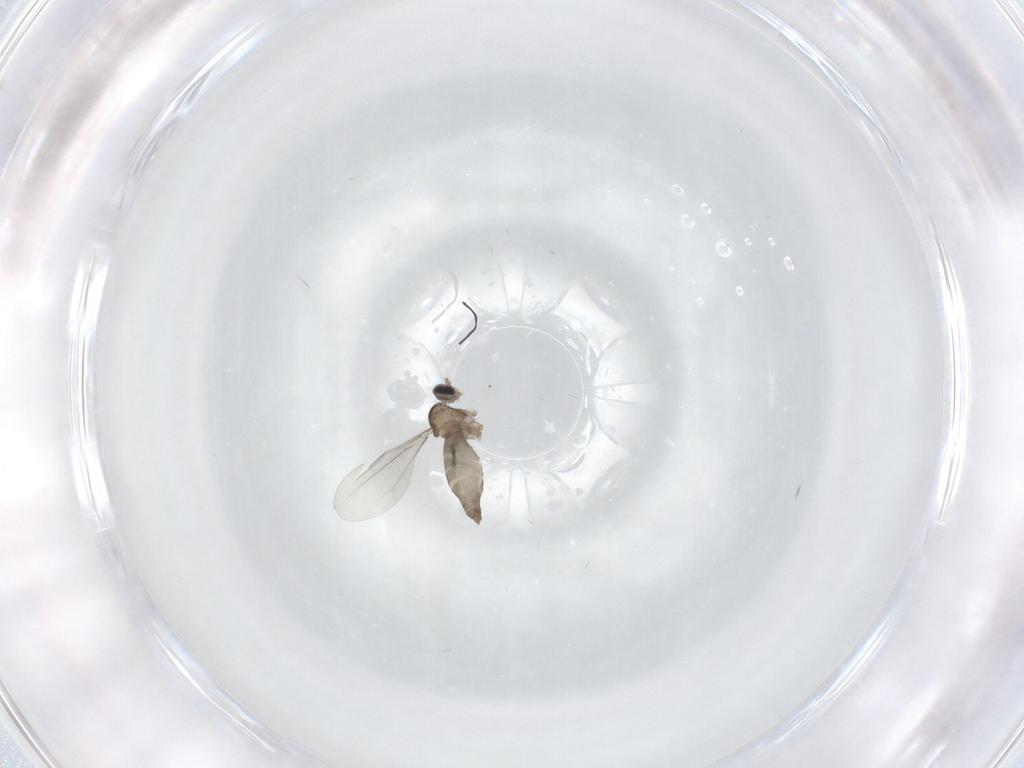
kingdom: Animalia
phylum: Arthropoda
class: Insecta
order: Diptera
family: Cecidomyiidae
